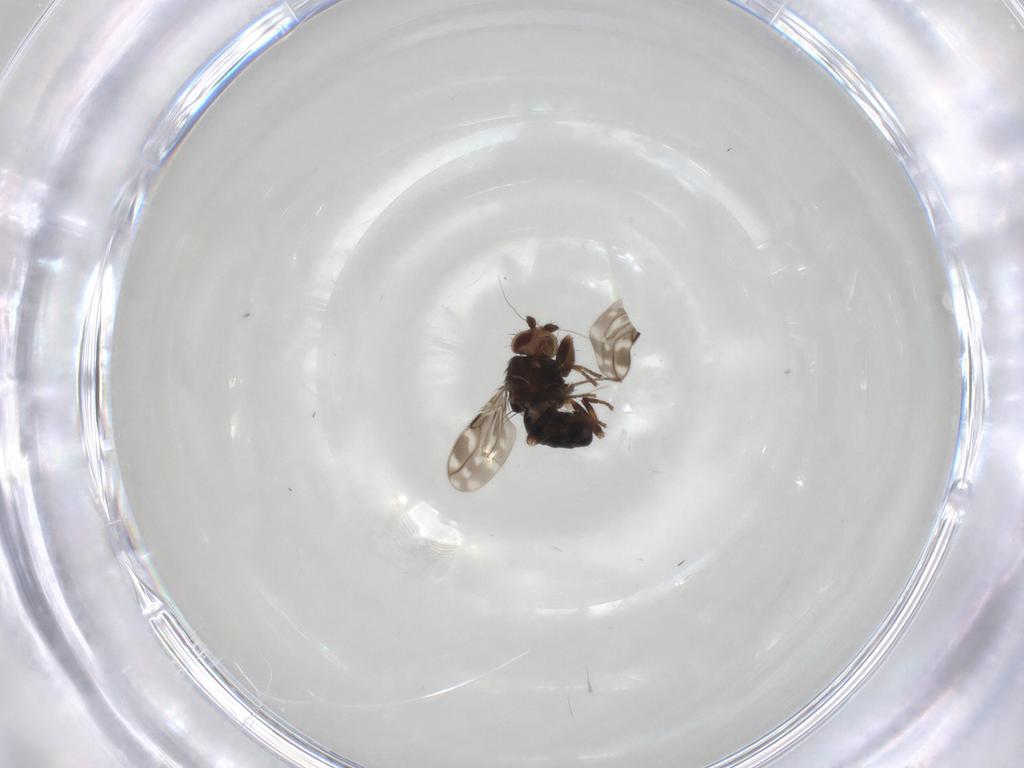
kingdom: Animalia
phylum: Arthropoda
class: Insecta
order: Diptera
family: Sphaeroceridae
